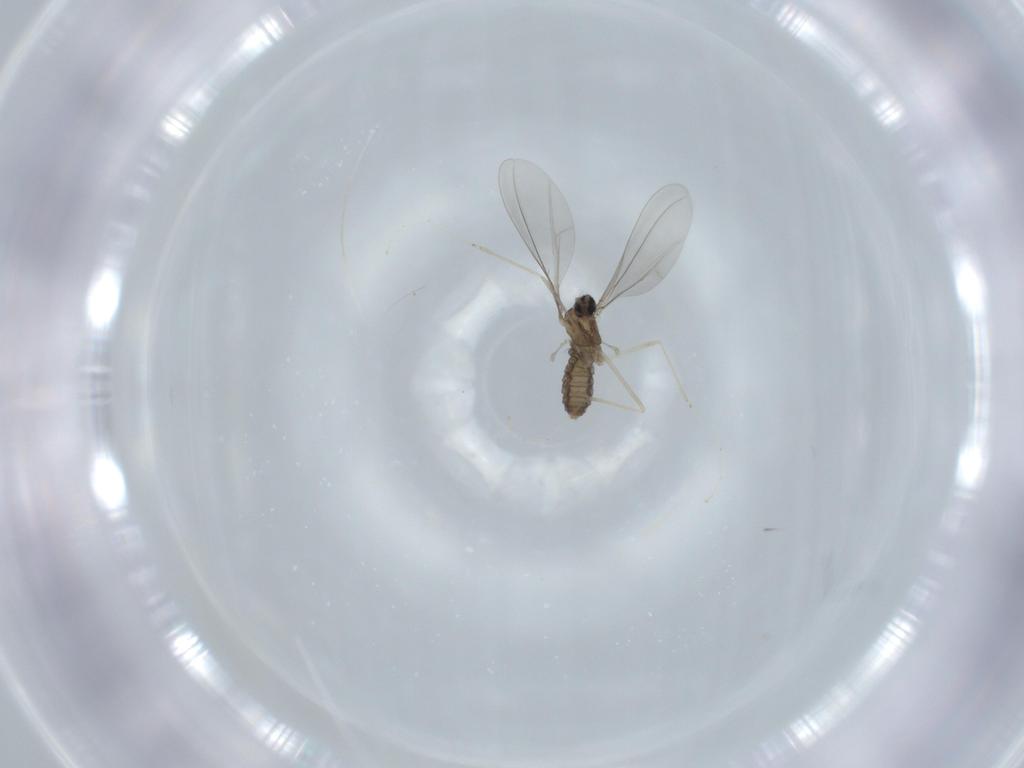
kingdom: Animalia
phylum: Arthropoda
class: Insecta
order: Diptera
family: Cecidomyiidae
